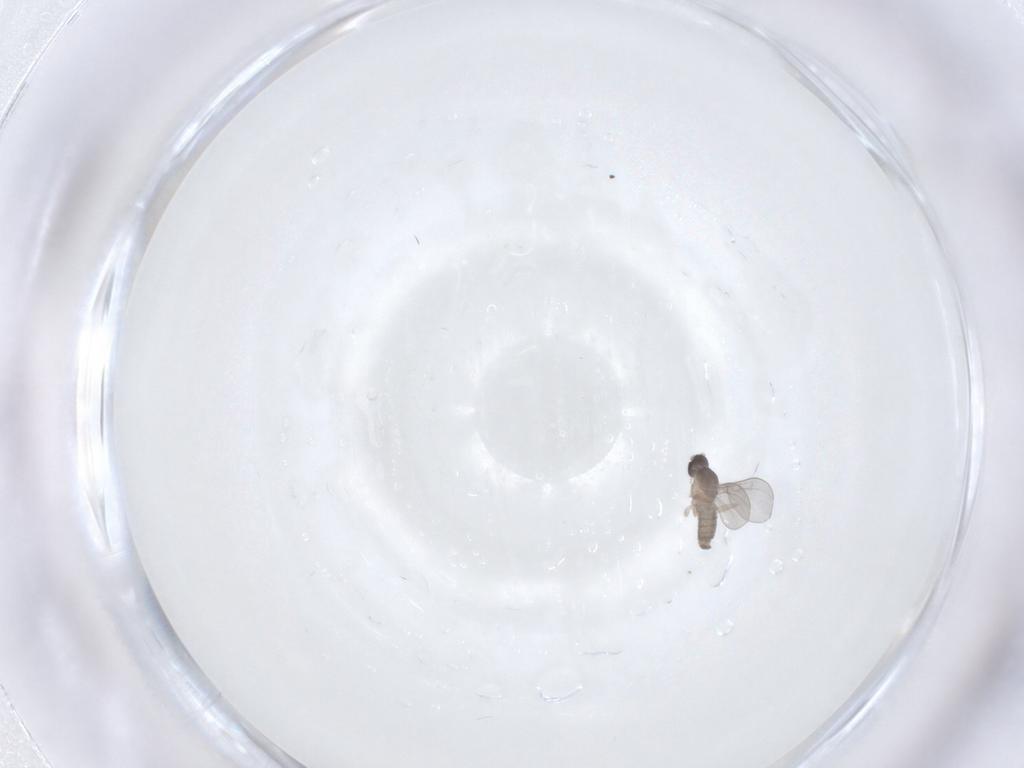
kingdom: Animalia
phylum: Arthropoda
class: Insecta
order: Diptera
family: Cecidomyiidae
